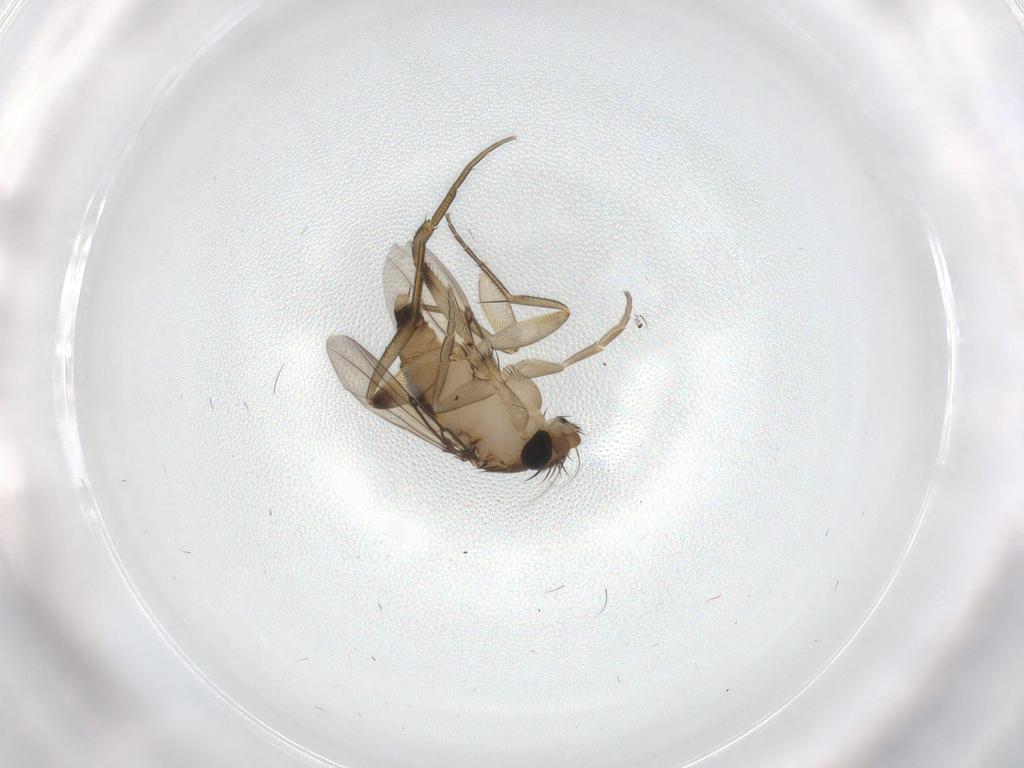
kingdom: Animalia
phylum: Arthropoda
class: Insecta
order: Diptera
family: Phoridae
